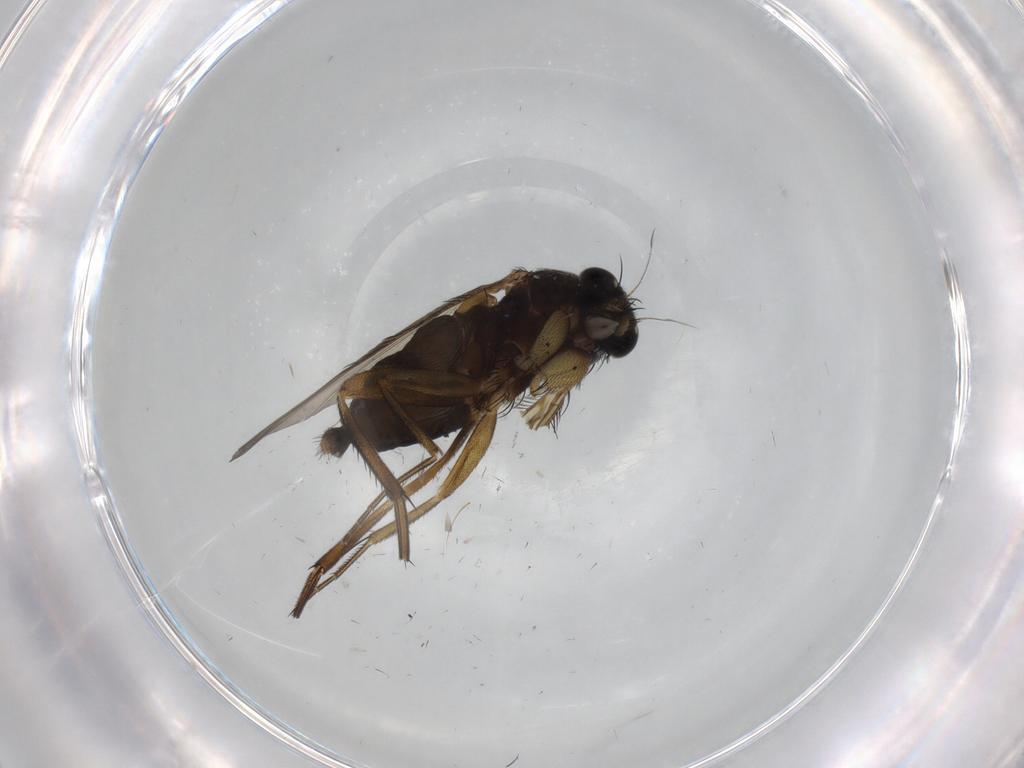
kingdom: Animalia
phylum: Arthropoda
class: Insecta
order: Diptera
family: Phoridae
